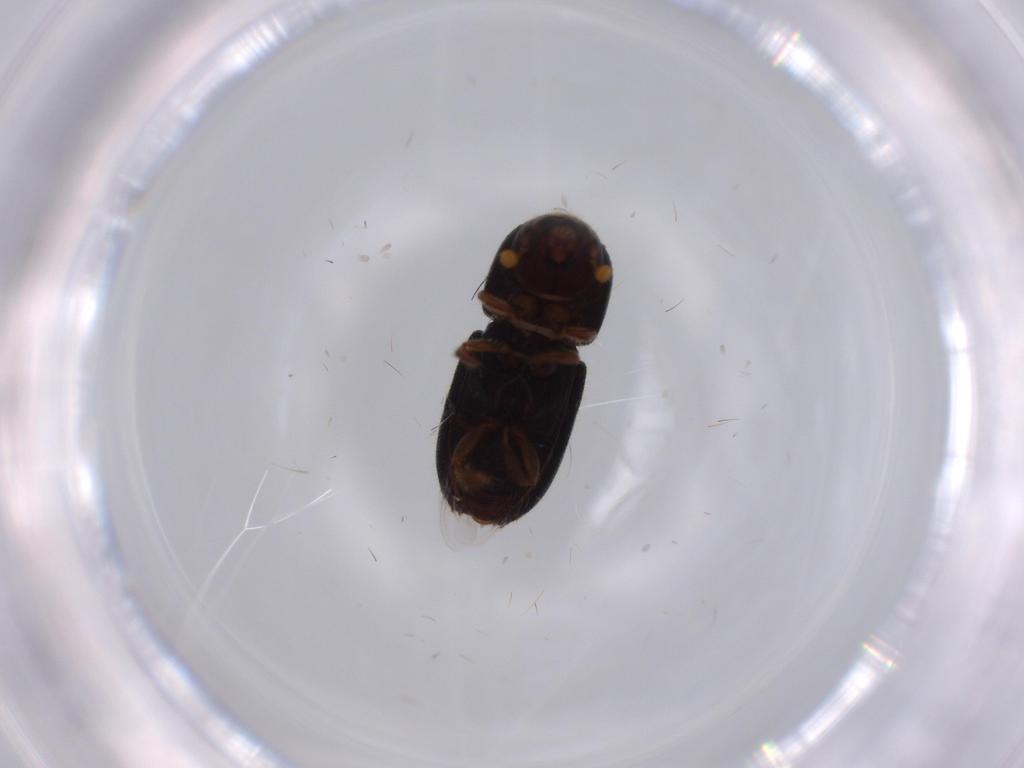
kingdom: Animalia
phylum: Arthropoda
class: Insecta
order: Coleoptera
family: Curculionidae
